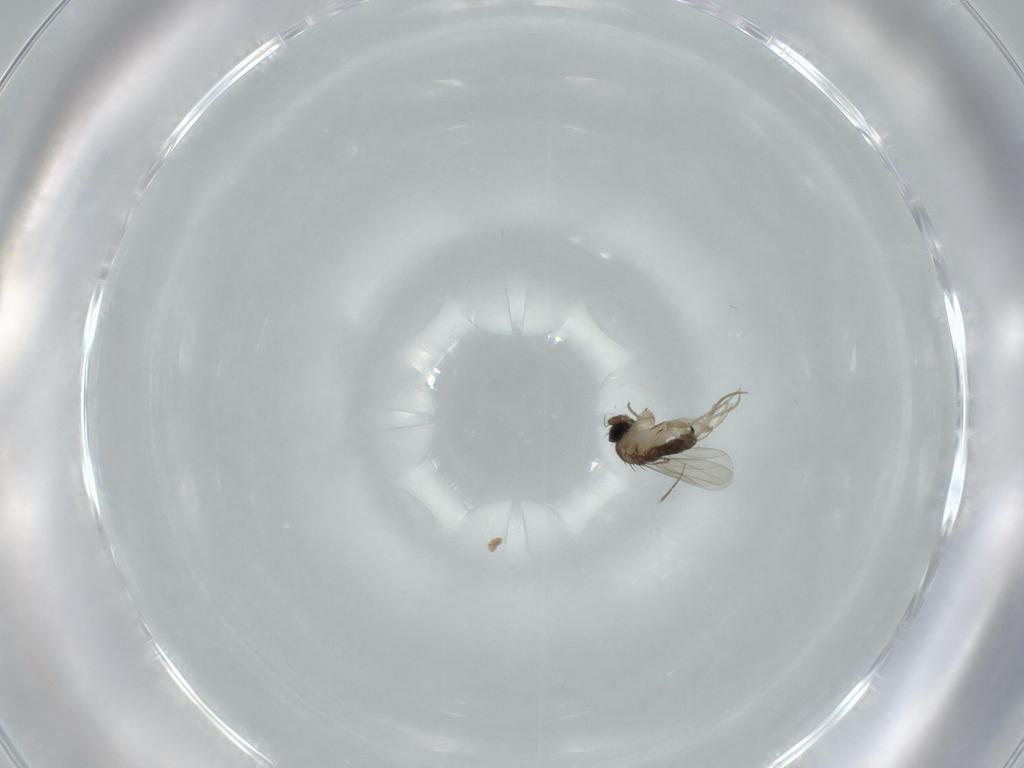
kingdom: Animalia
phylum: Arthropoda
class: Insecta
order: Diptera
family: Phoridae
